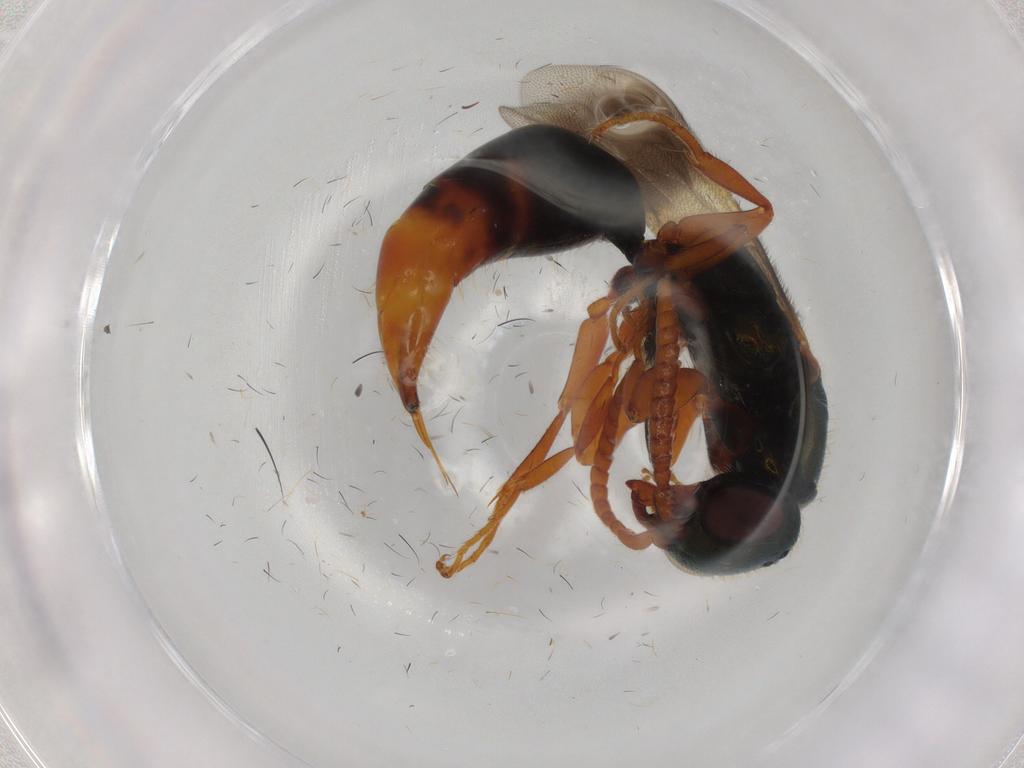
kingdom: Animalia
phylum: Arthropoda
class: Insecta
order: Hymenoptera
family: Bethylidae
